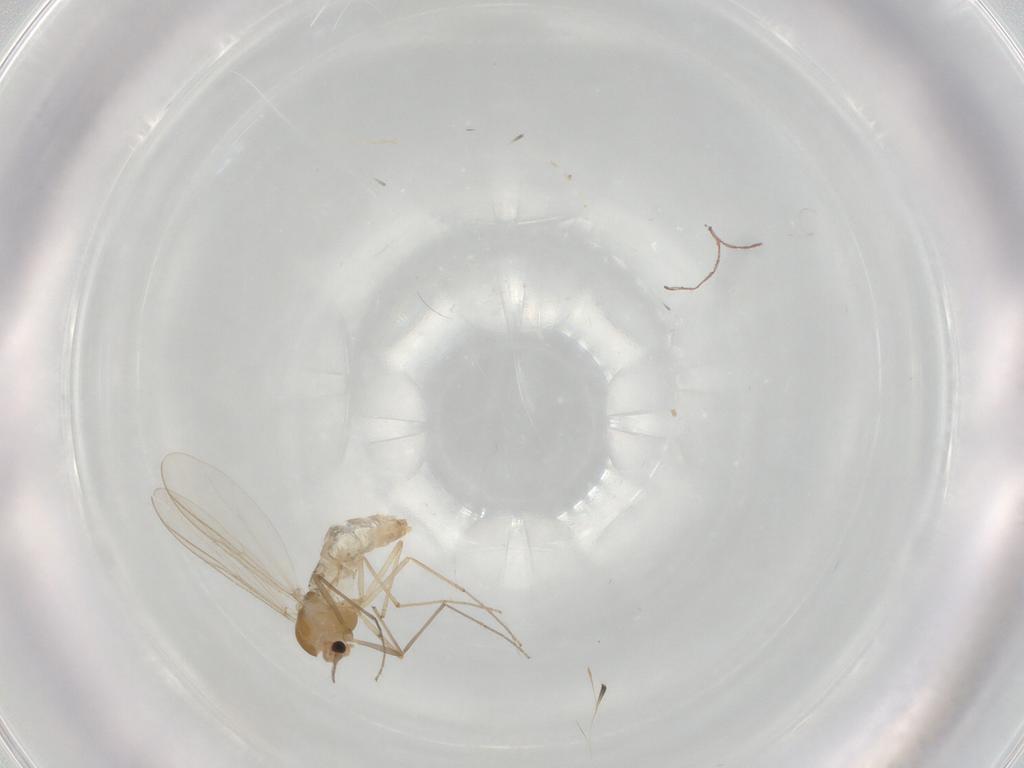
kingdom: Animalia
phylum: Arthropoda
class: Insecta
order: Diptera
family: Chironomidae
